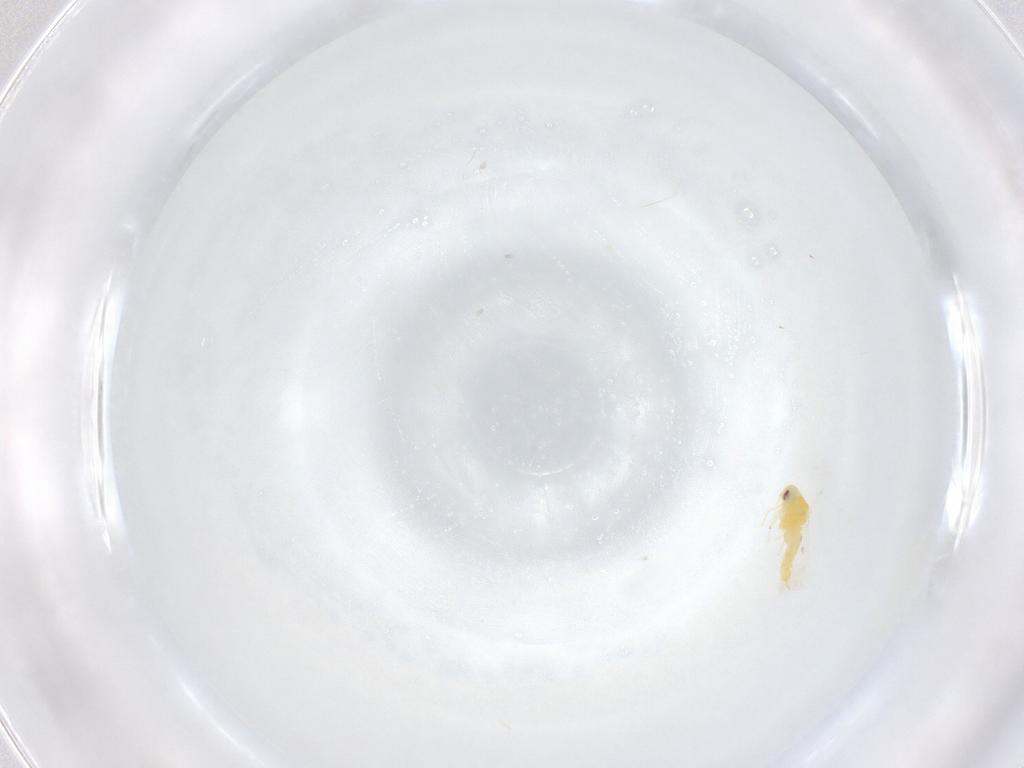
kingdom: Animalia
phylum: Arthropoda
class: Insecta
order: Hemiptera
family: Aleyrodidae
